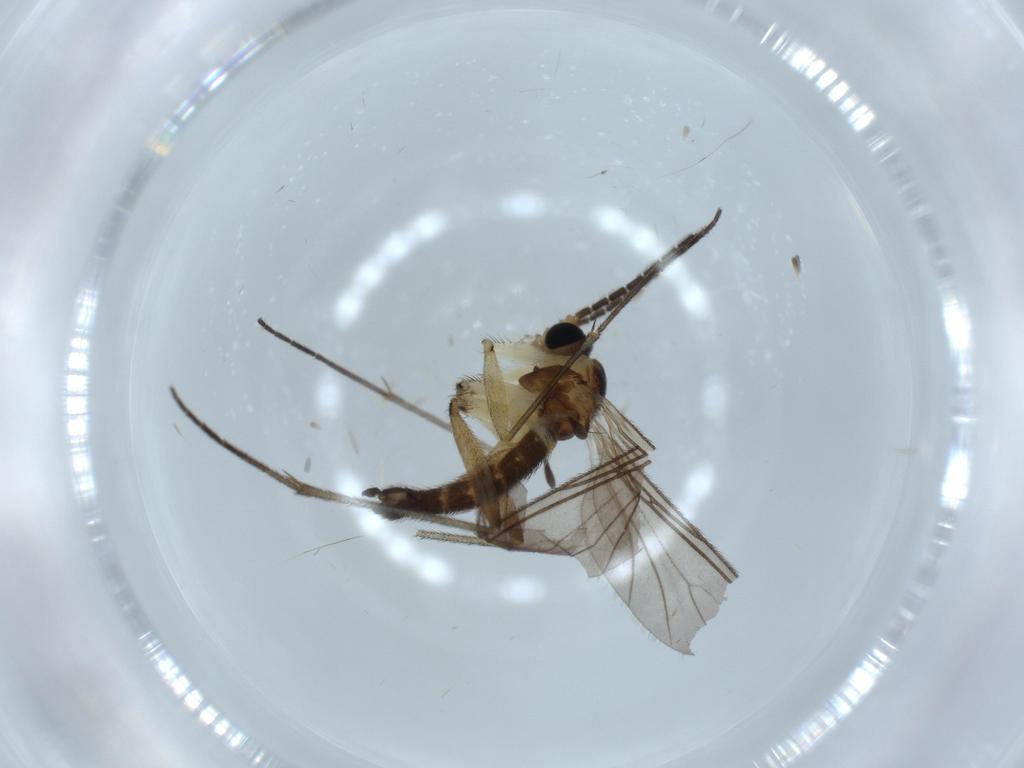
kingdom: Animalia
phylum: Arthropoda
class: Insecta
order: Diptera
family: Sciaridae
